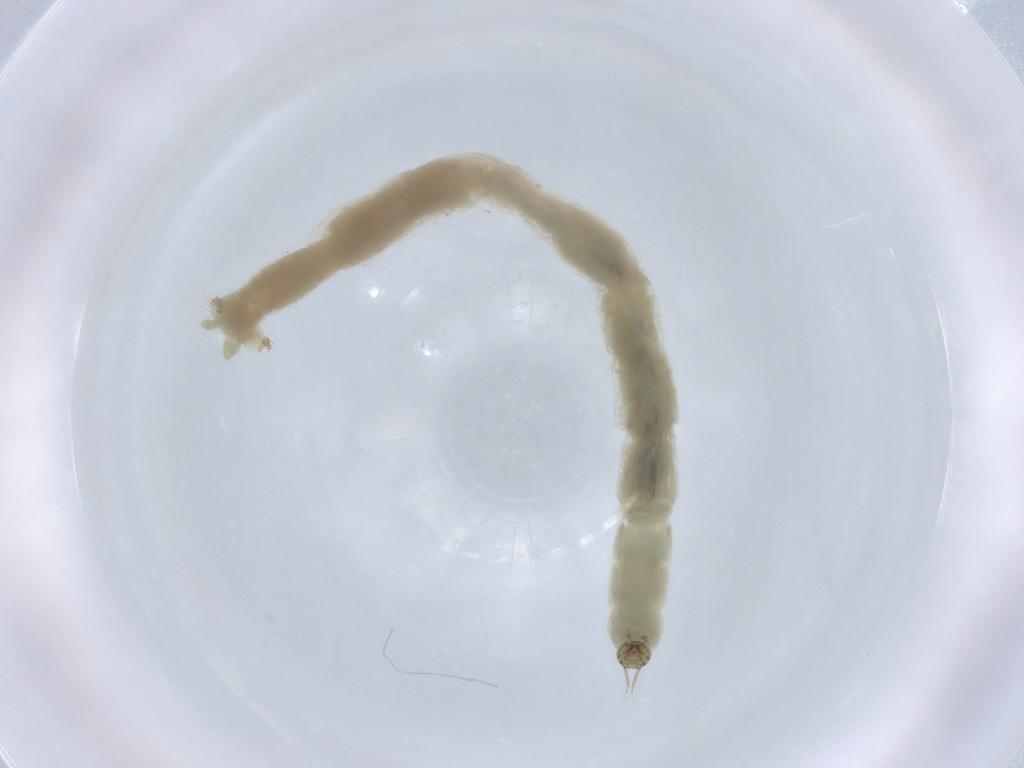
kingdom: Animalia
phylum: Arthropoda
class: Insecta
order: Diptera
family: Chironomidae
